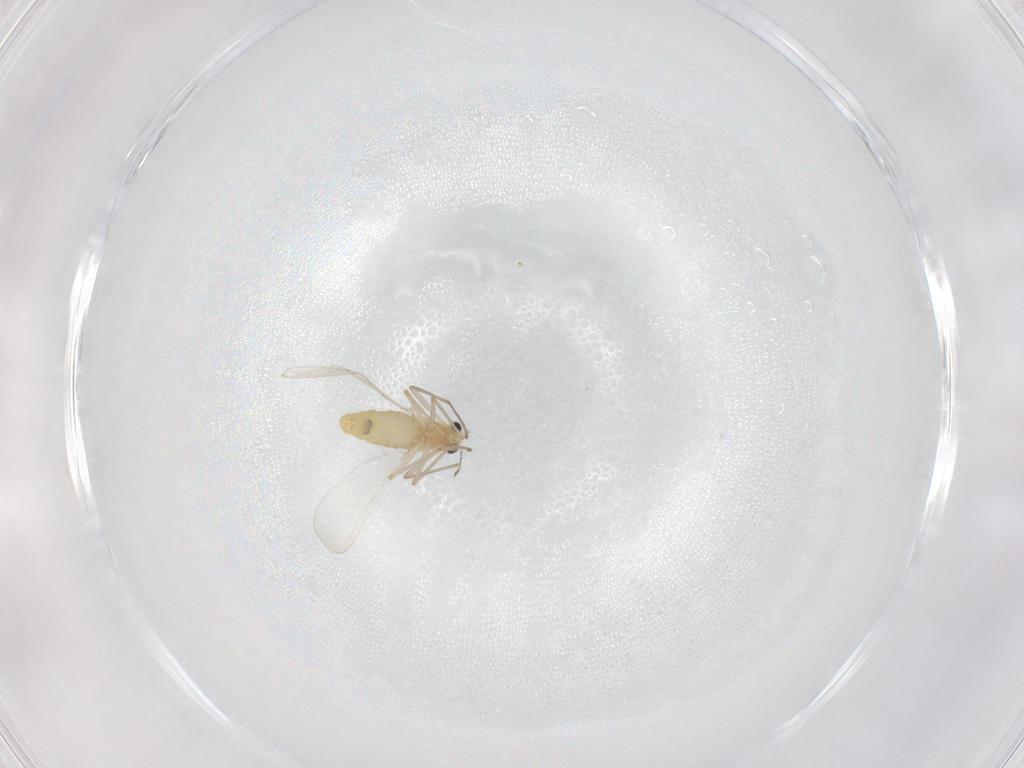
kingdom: Animalia
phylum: Arthropoda
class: Insecta
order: Diptera
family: Chironomidae
